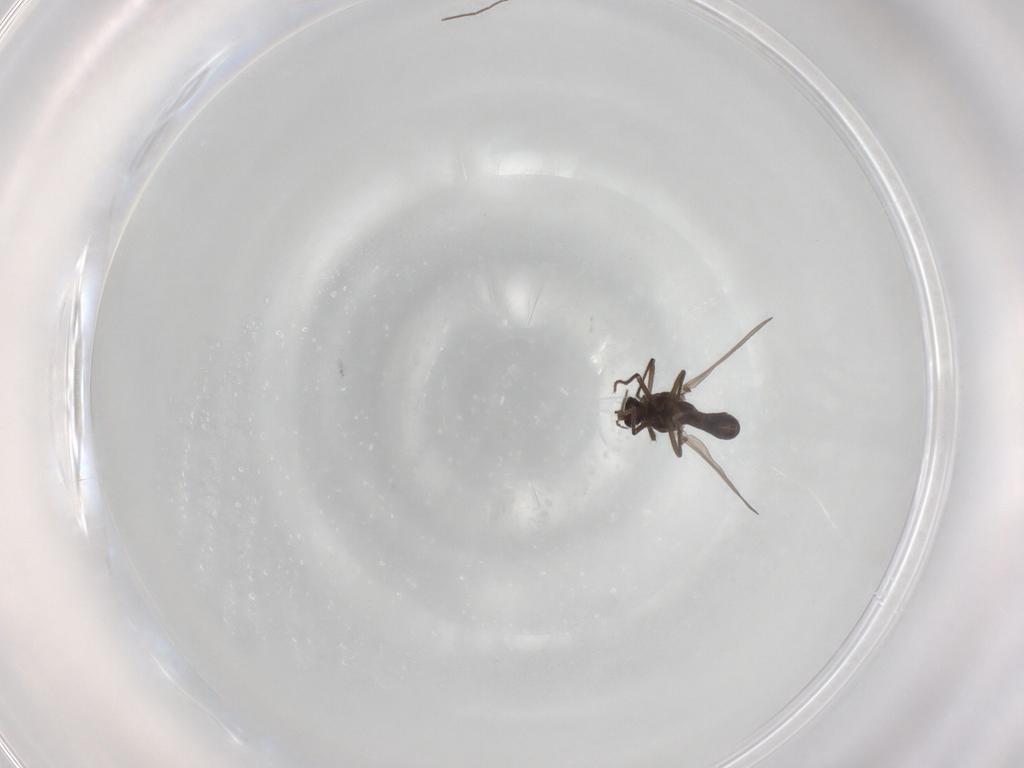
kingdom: Animalia
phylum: Arthropoda
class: Insecta
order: Diptera
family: Chironomidae
